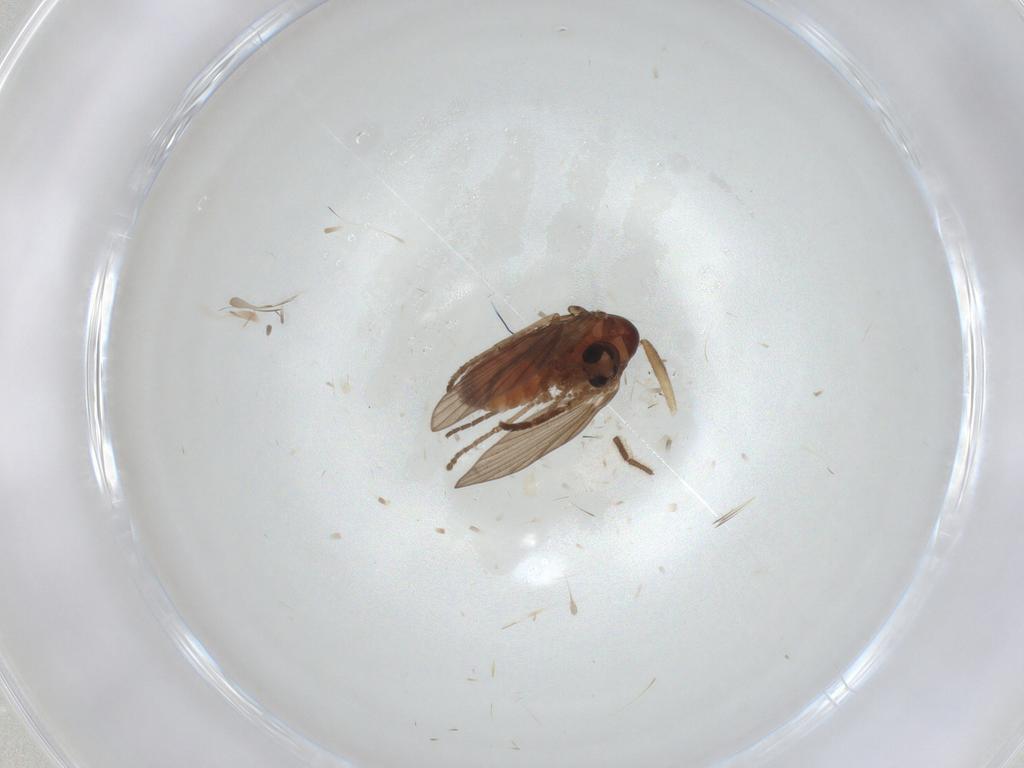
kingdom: Animalia
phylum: Arthropoda
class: Insecta
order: Diptera
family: Psychodidae
